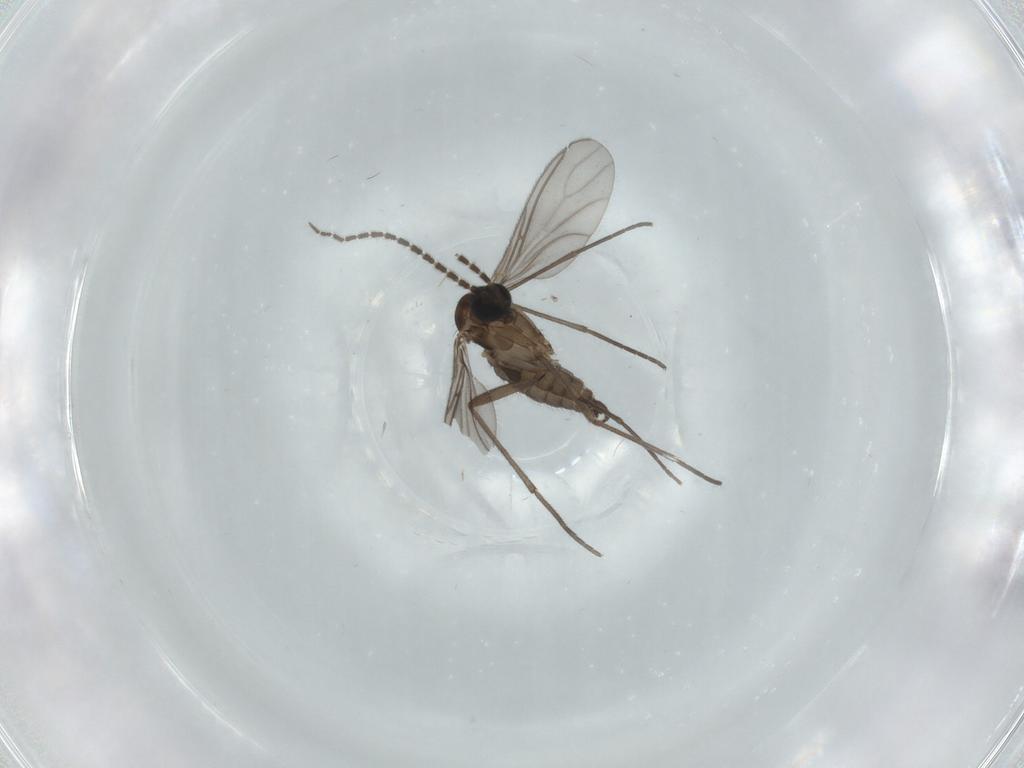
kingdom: Animalia
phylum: Arthropoda
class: Insecta
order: Diptera
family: Sciaridae
